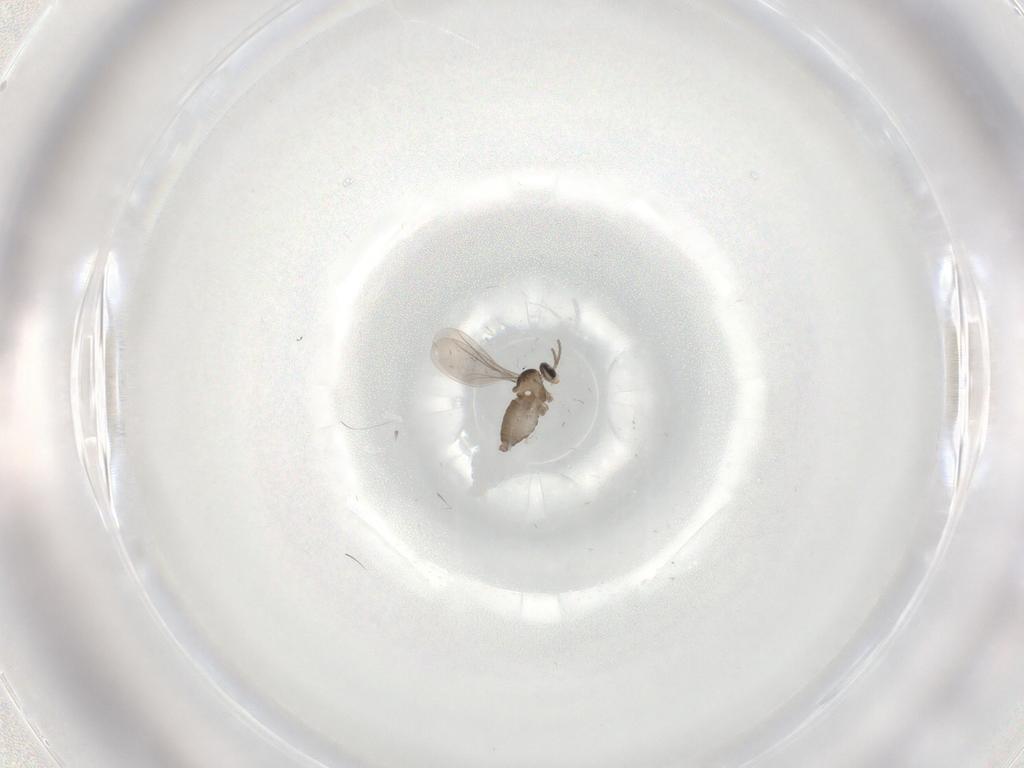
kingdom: Animalia
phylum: Arthropoda
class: Insecta
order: Diptera
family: Cecidomyiidae
